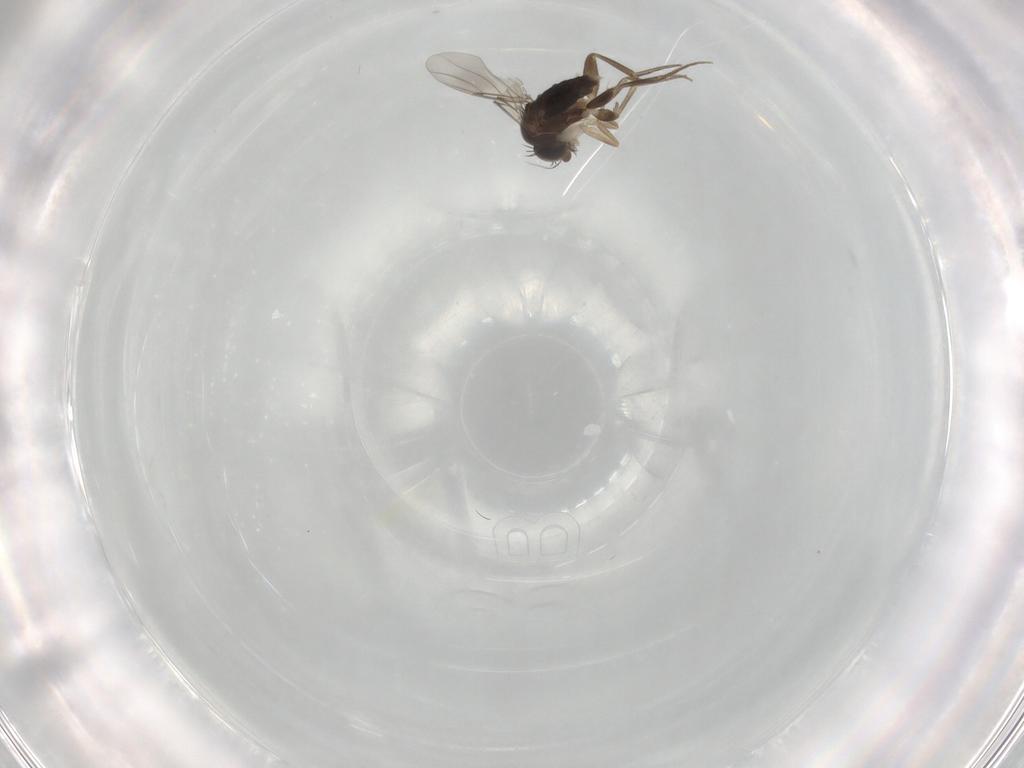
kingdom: Animalia
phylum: Arthropoda
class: Insecta
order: Diptera
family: Phoridae
